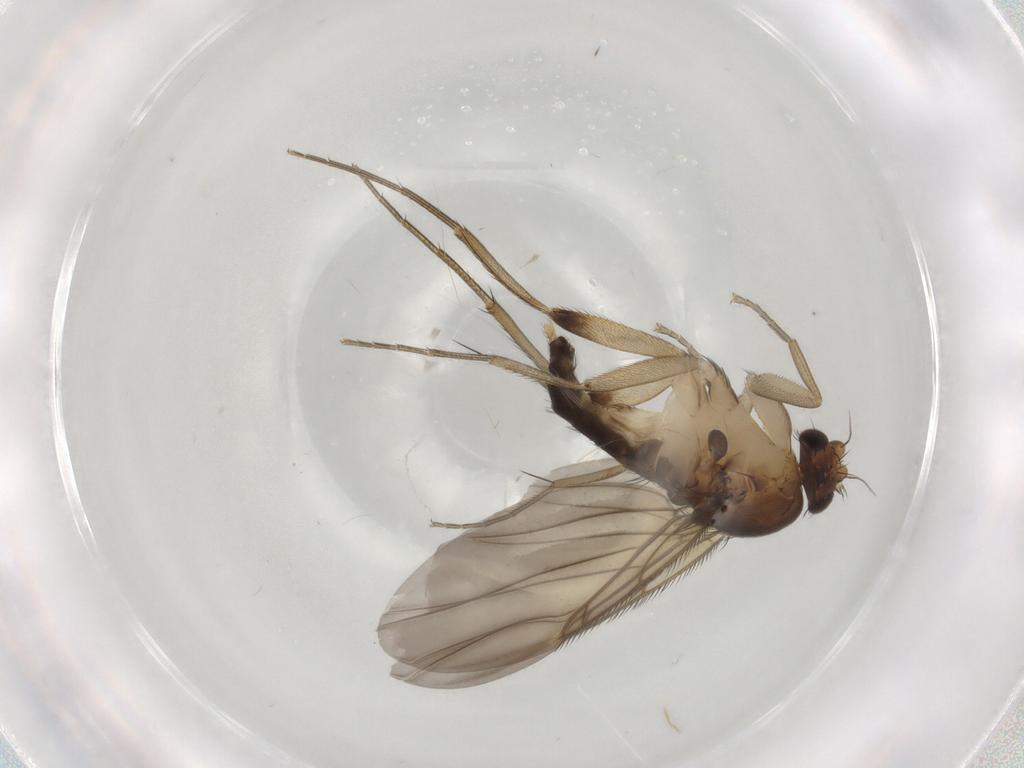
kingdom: Animalia
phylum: Arthropoda
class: Insecta
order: Diptera
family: Phoridae
